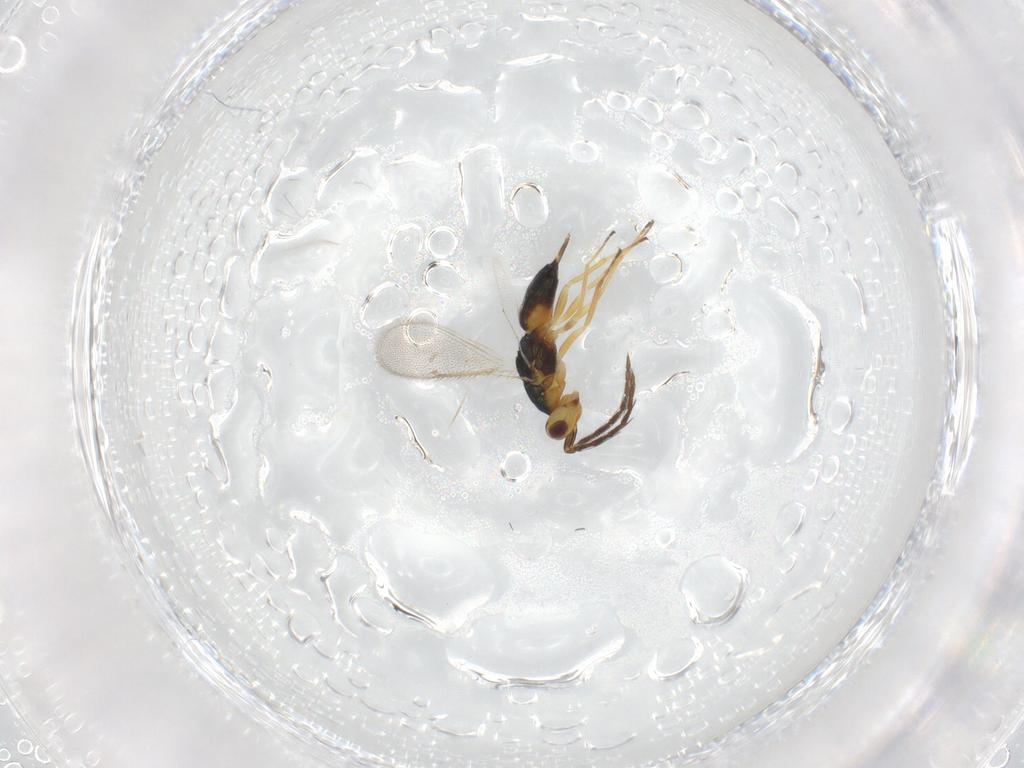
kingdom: Animalia
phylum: Arthropoda
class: Insecta
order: Hymenoptera
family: Eulophidae
